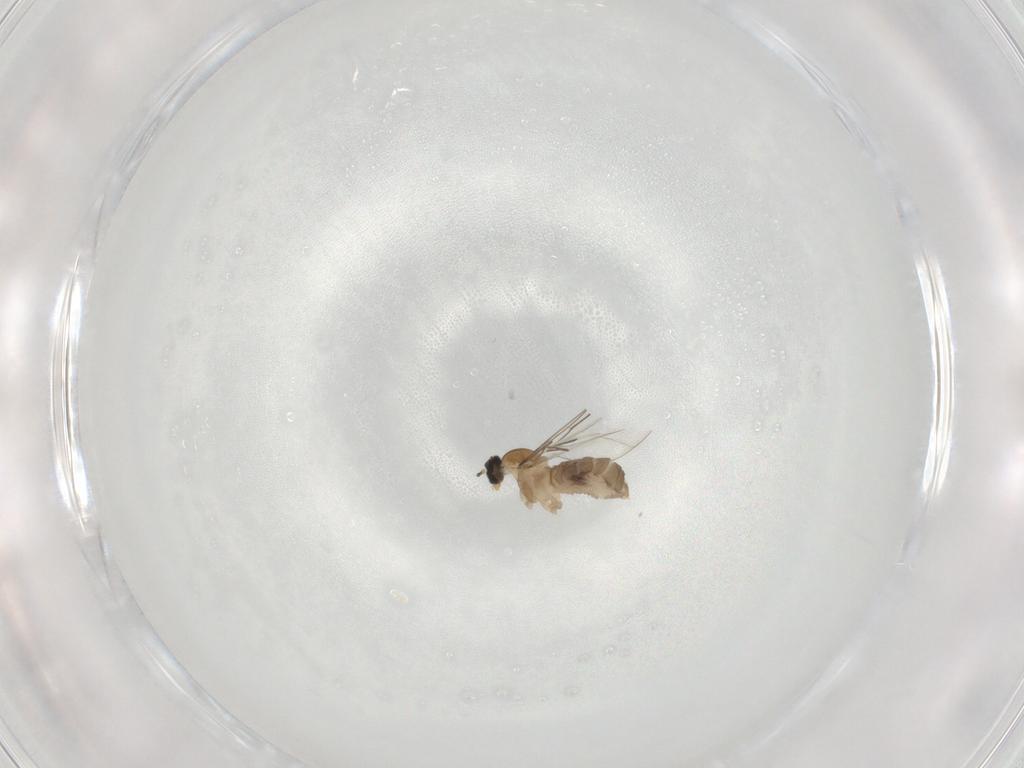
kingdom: Animalia
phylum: Arthropoda
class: Insecta
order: Diptera
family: Cecidomyiidae
